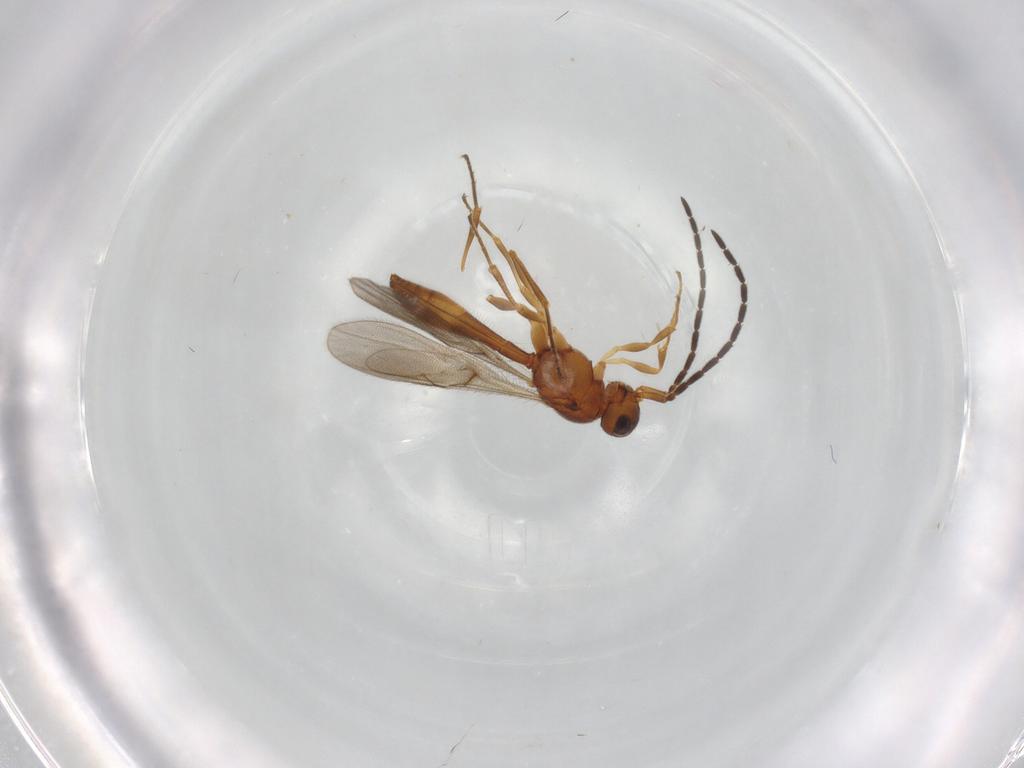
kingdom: Animalia
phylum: Arthropoda
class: Insecta
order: Hymenoptera
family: Scelionidae
